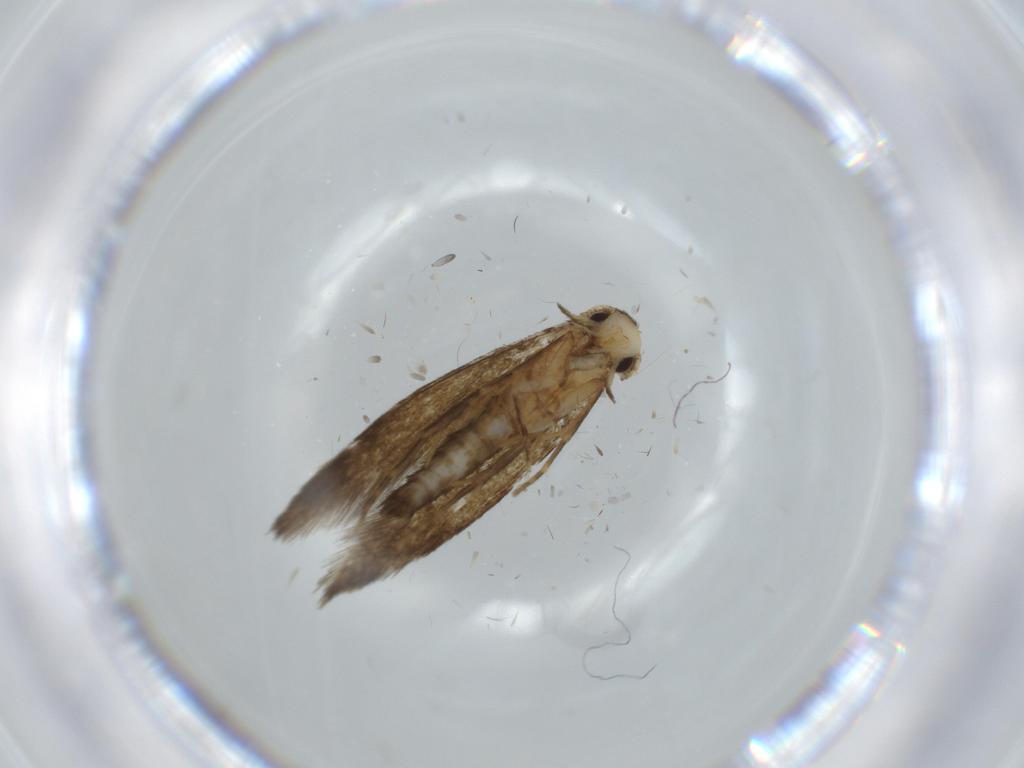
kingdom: Animalia
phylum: Arthropoda
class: Insecta
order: Lepidoptera
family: Tineidae
